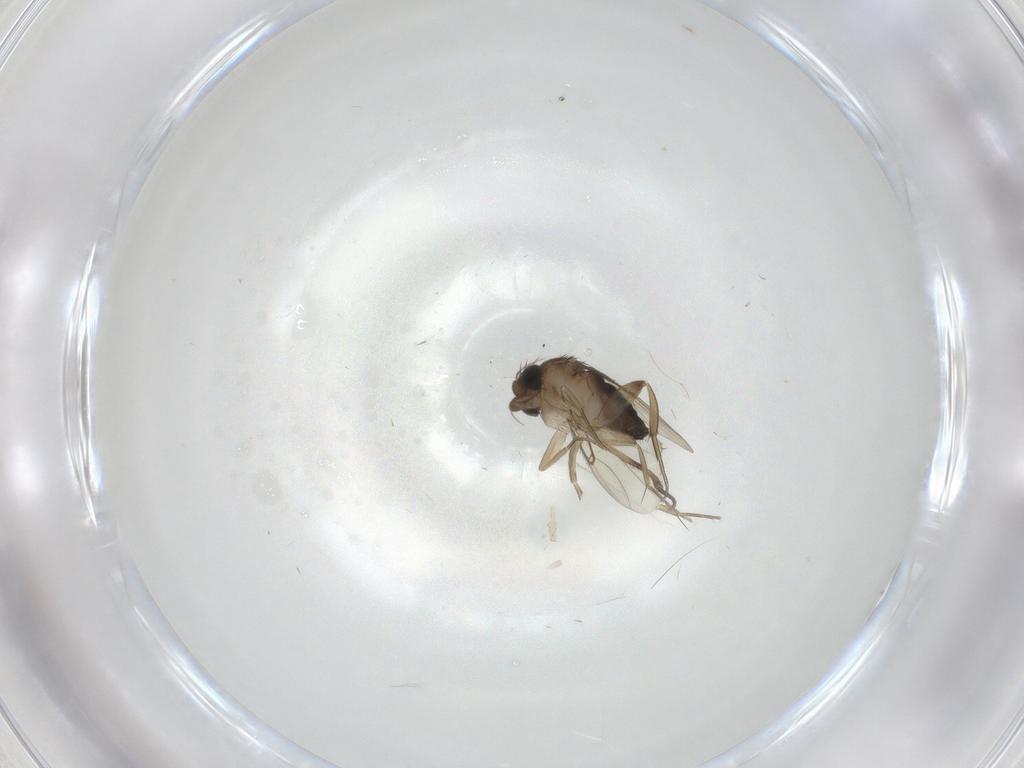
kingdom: Animalia
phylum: Arthropoda
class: Insecta
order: Diptera
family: Phoridae
